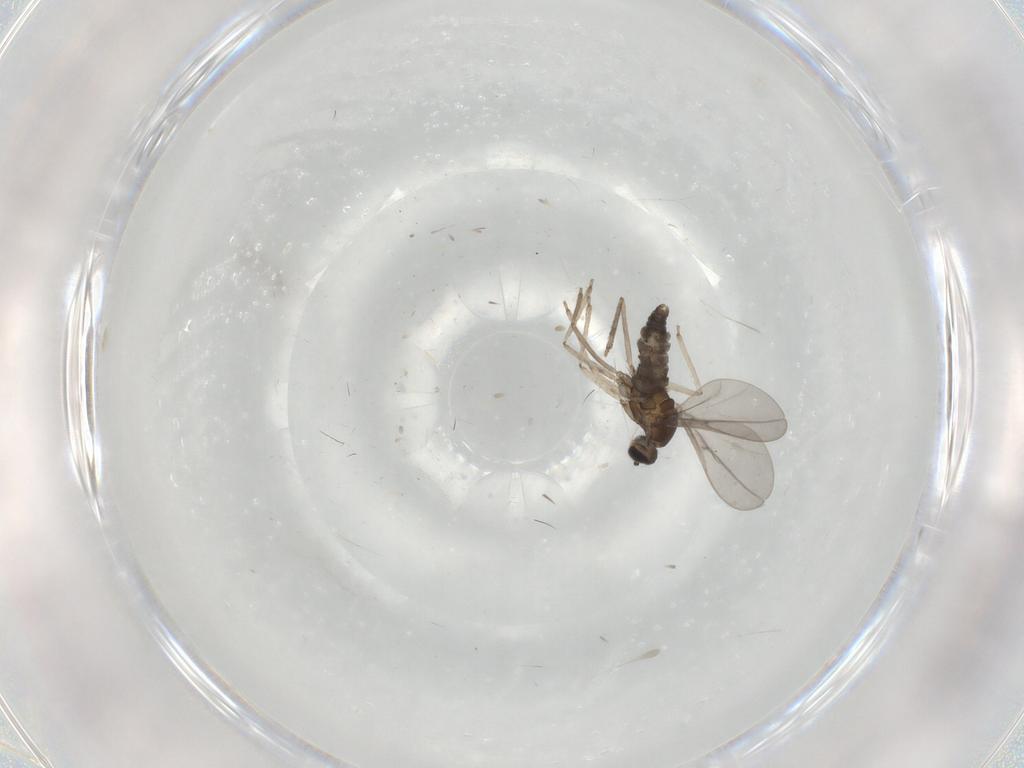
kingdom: Animalia
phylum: Arthropoda
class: Insecta
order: Diptera
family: Cecidomyiidae
